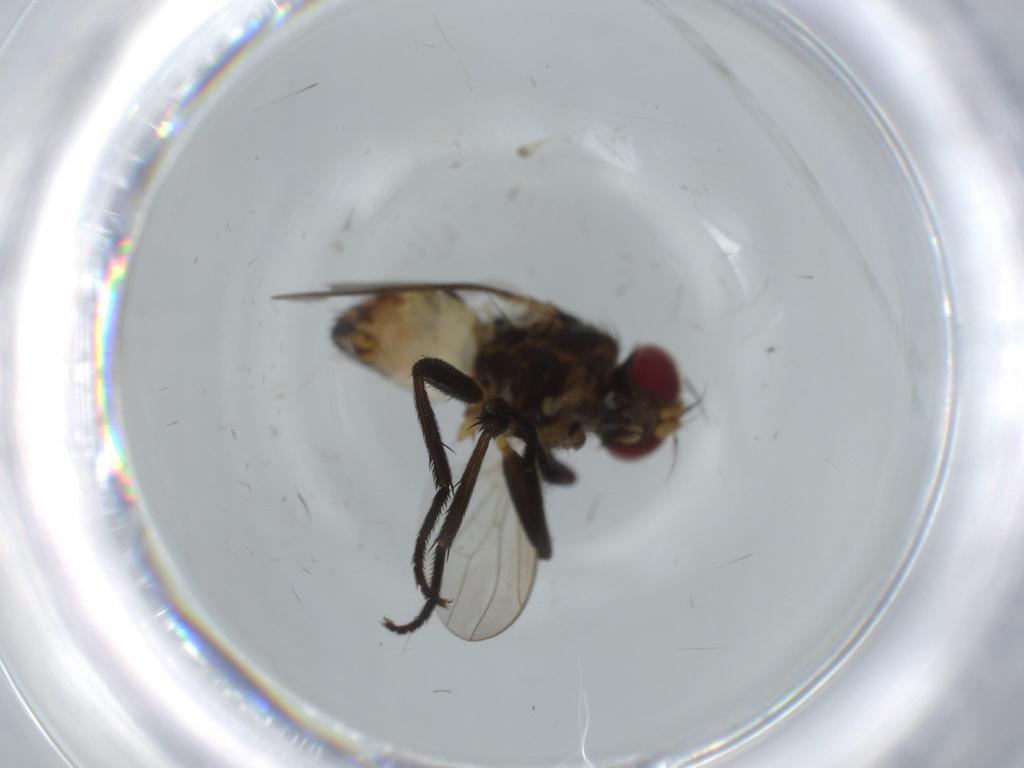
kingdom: Animalia
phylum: Arthropoda
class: Insecta
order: Diptera
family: Anthomyiidae
